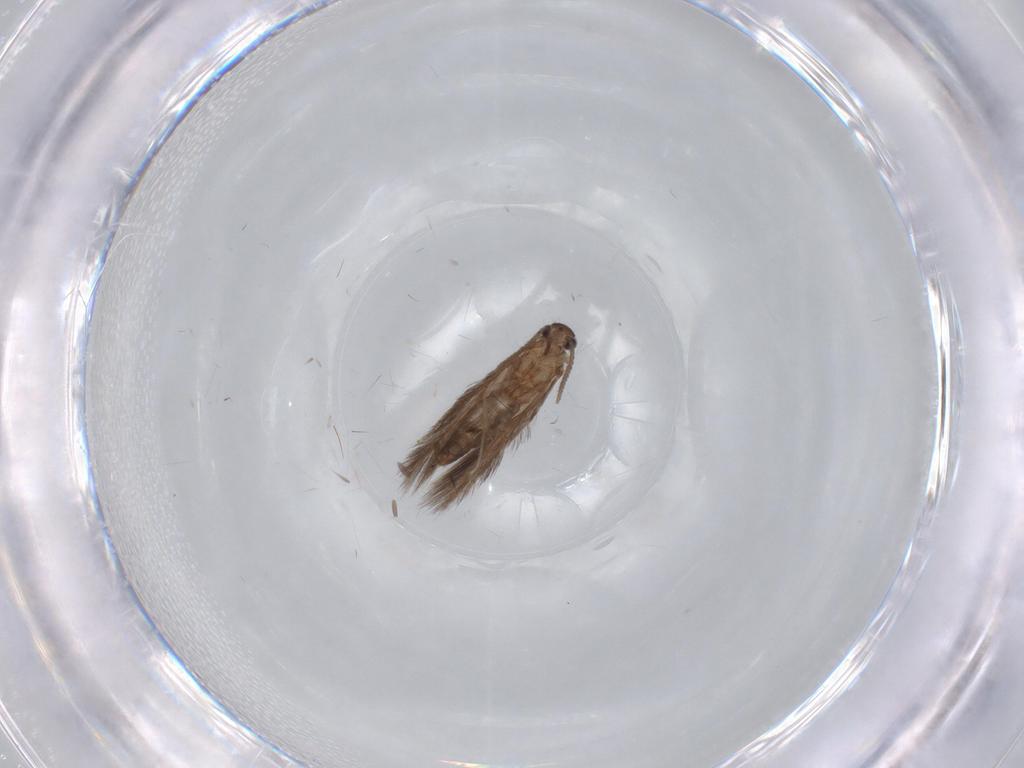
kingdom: Animalia
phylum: Arthropoda
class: Insecta
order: Trichoptera
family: Hydroptilidae
